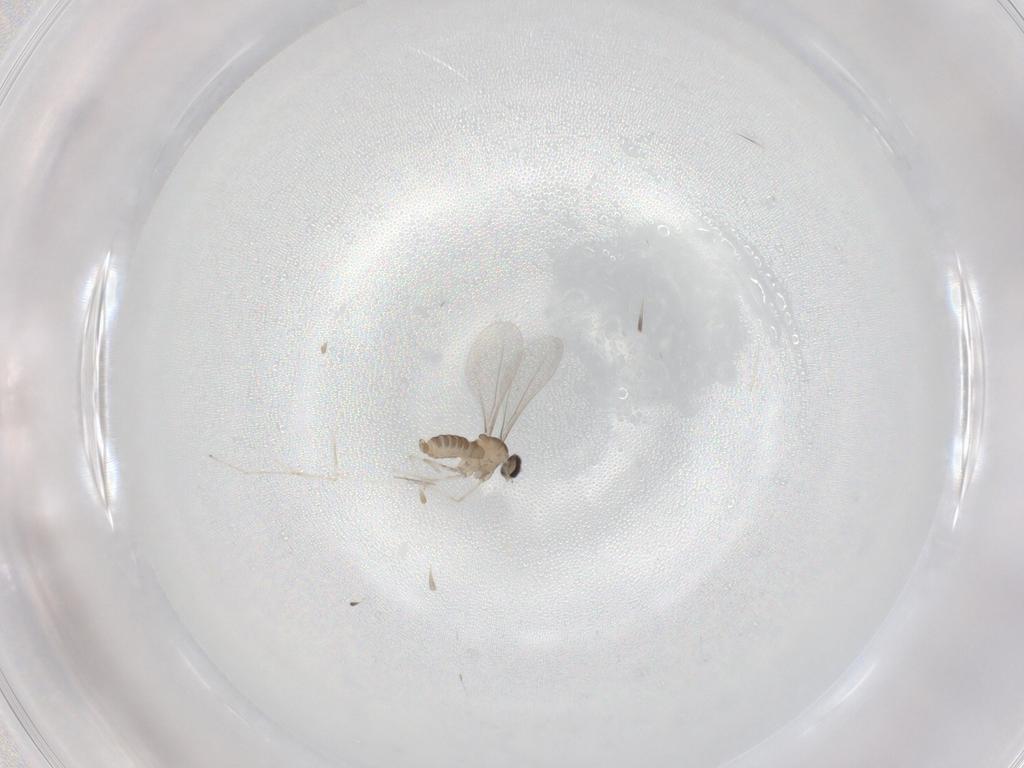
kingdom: Animalia
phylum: Arthropoda
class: Insecta
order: Diptera
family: Cecidomyiidae
